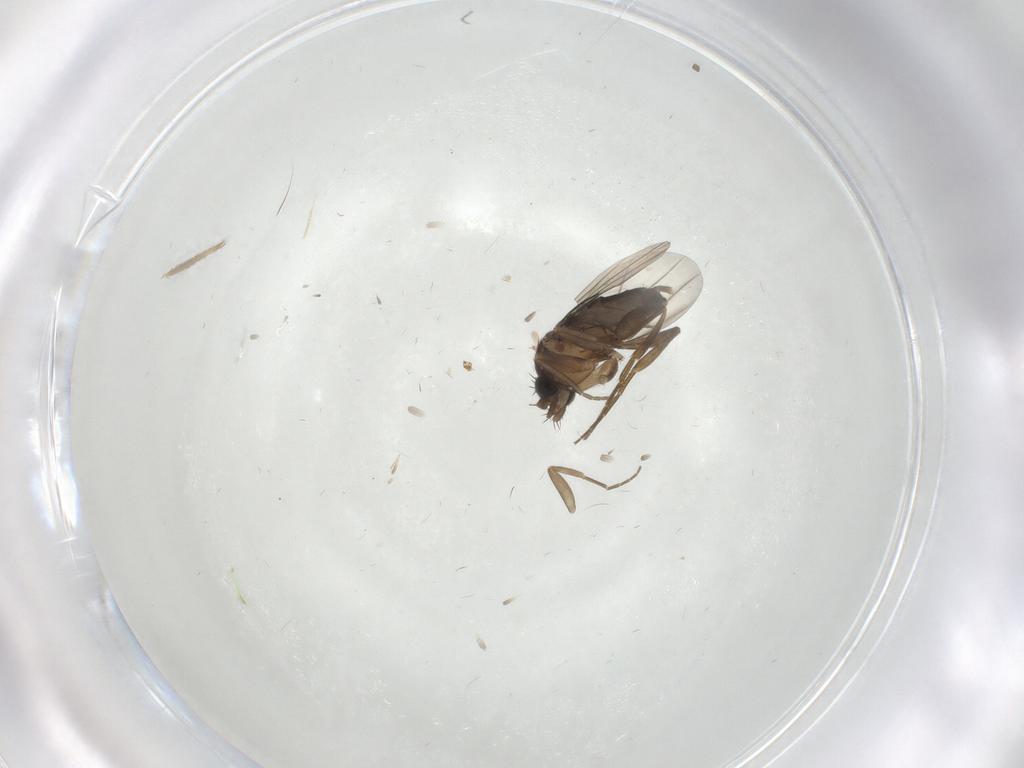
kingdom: Animalia
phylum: Arthropoda
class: Insecta
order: Diptera
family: Phoridae
